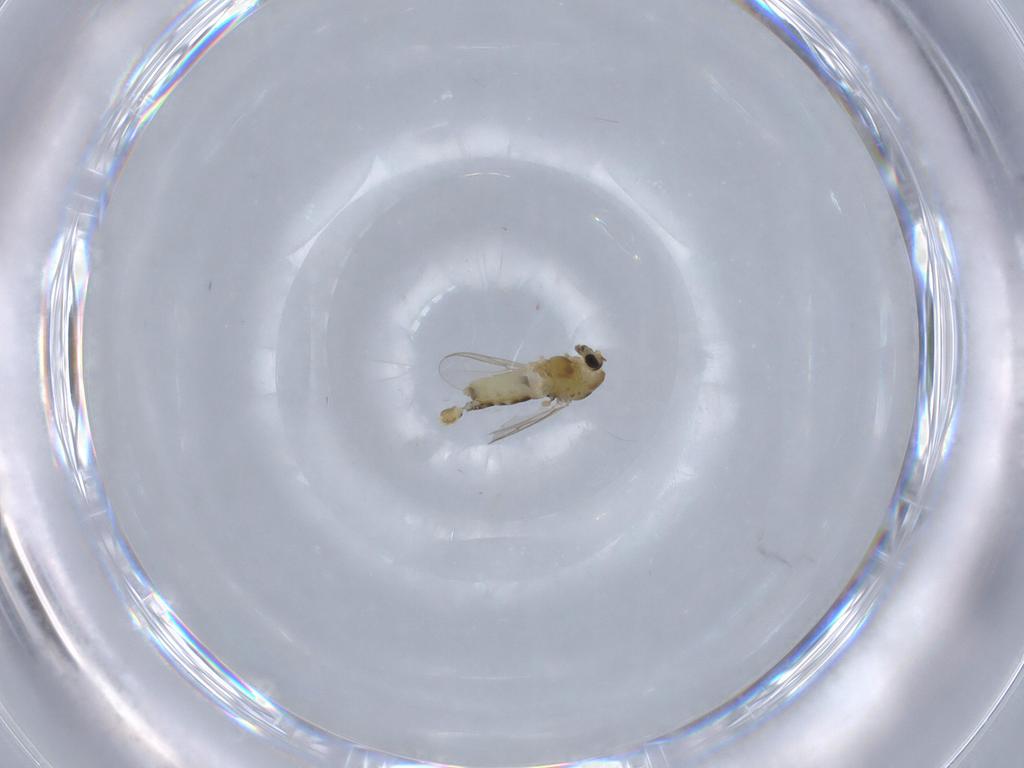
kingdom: Animalia
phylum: Arthropoda
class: Insecta
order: Diptera
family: Chironomidae
